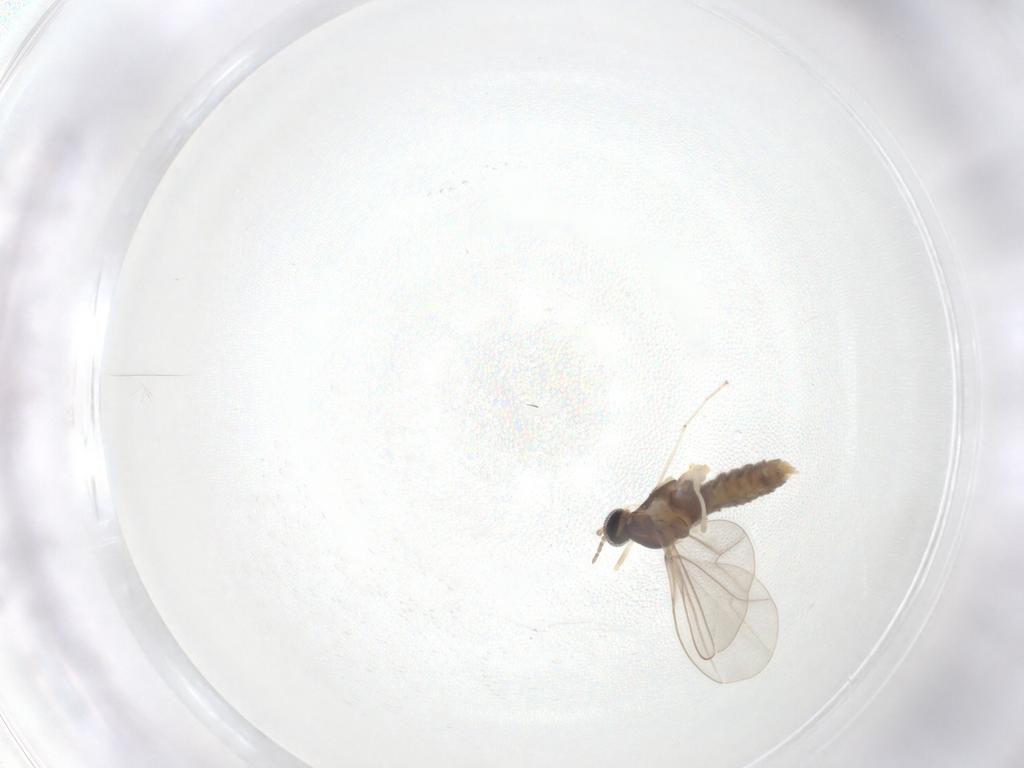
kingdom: Animalia
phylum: Arthropoda
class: Insecta
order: Diptera
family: Cecidomyiidae
